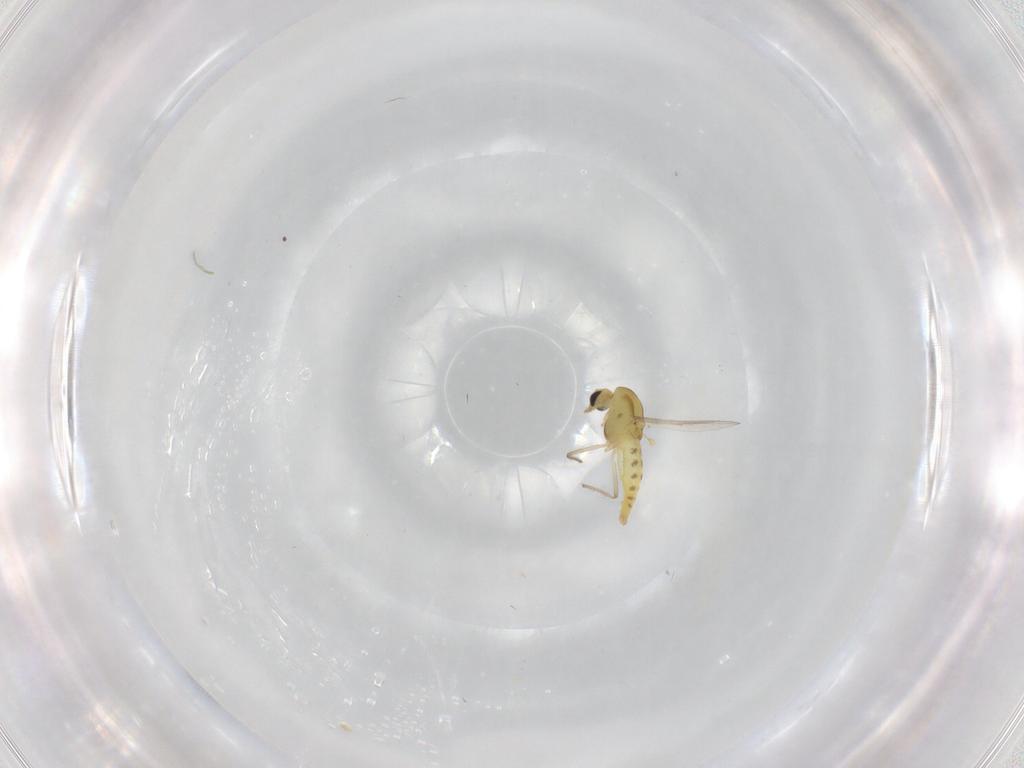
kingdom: Animalia
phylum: Arthropoda
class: Insecta
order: Diptera
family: Chironomidae
